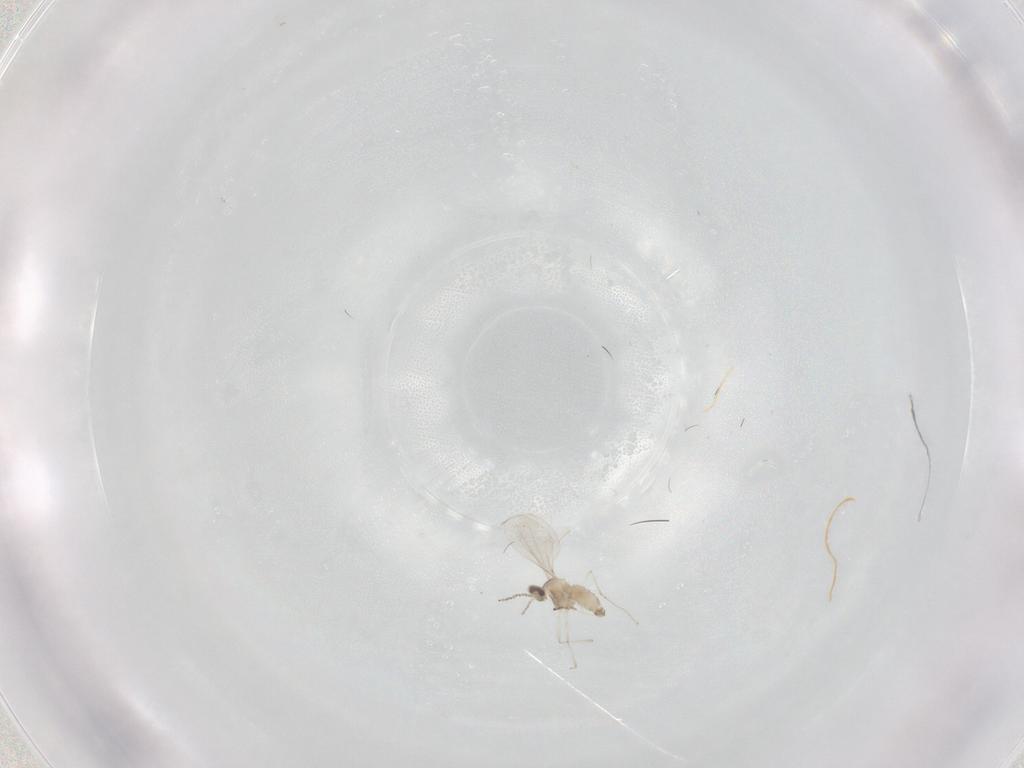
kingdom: Animalia
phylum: Arthropoda
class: Insecta
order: Diptera
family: Cecidomyiidae
